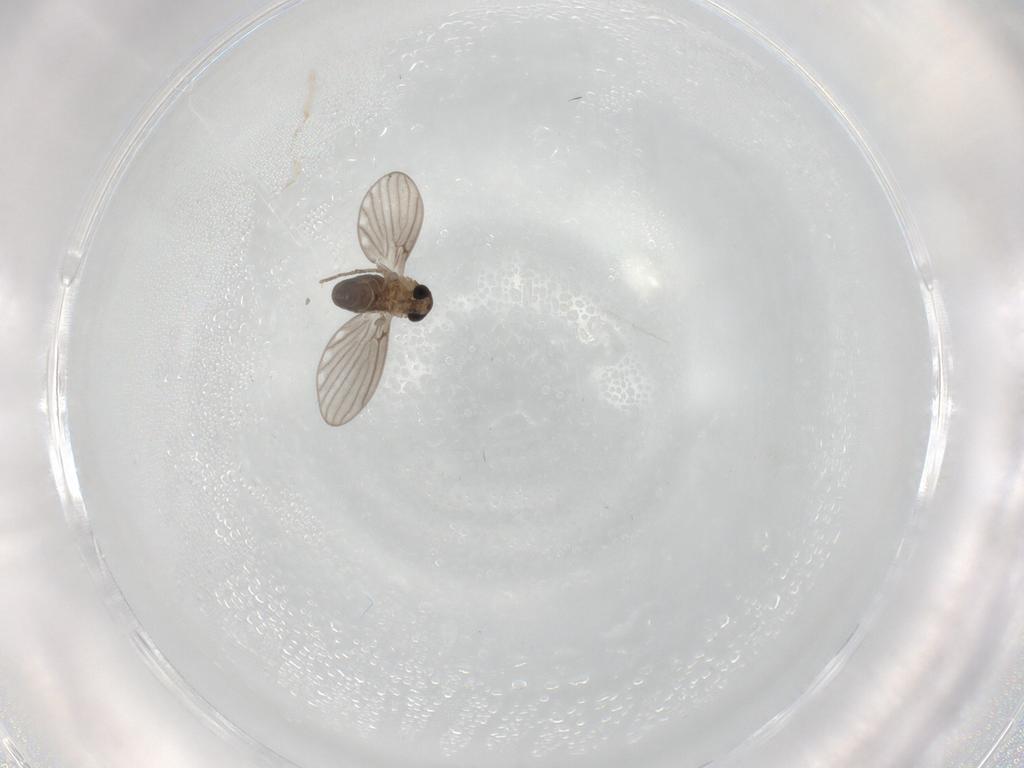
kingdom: Animalia
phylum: Arthropoda
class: Insecta
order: Diptera
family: Psychodidae
